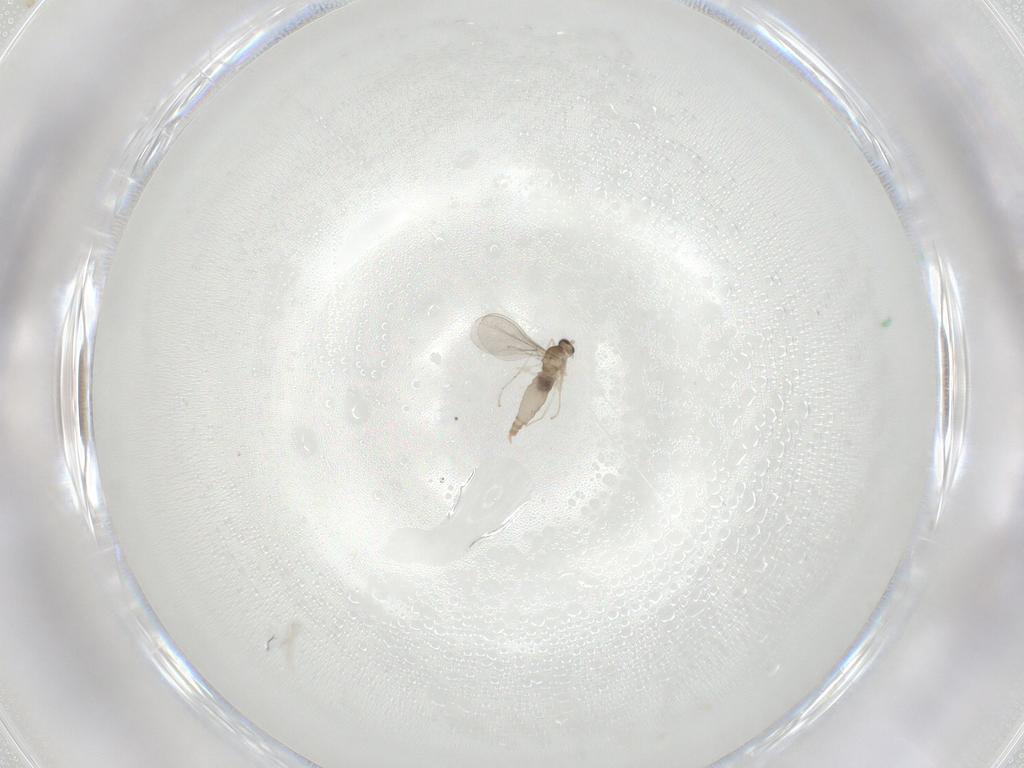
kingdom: Animalia
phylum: Arthropoda
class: Insecta
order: Diptera
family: Cecidomyiidae
